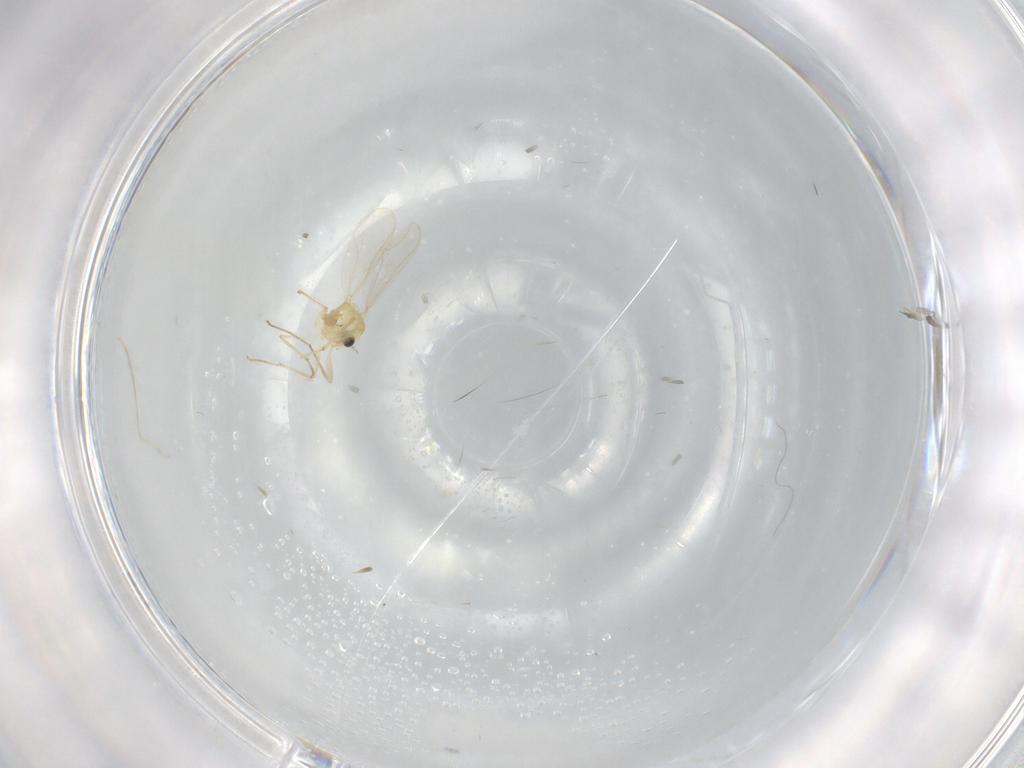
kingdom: Animalia
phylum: Arthropoda
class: Insecta
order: Diptera
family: Chironomidae
